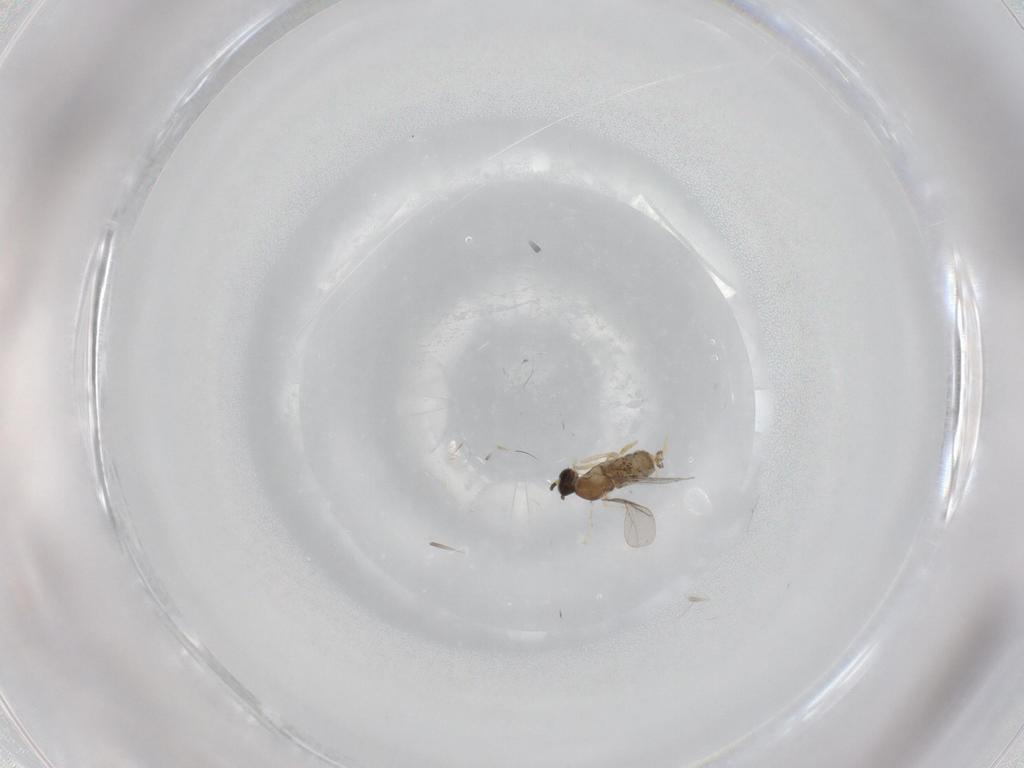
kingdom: Animalia
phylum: Arthropoda
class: Insecta
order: Diptera
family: Cecidomyiidae
